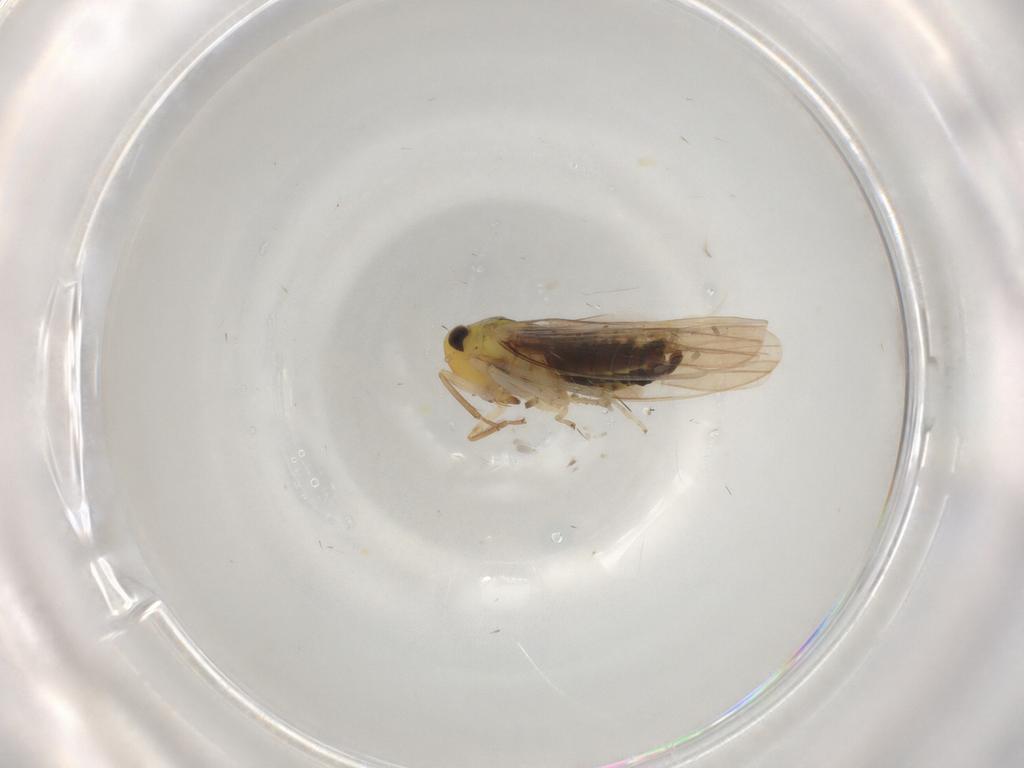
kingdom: Animalia
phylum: Arthropoda
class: Insecta
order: Hemiptera
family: Cicadellidae
